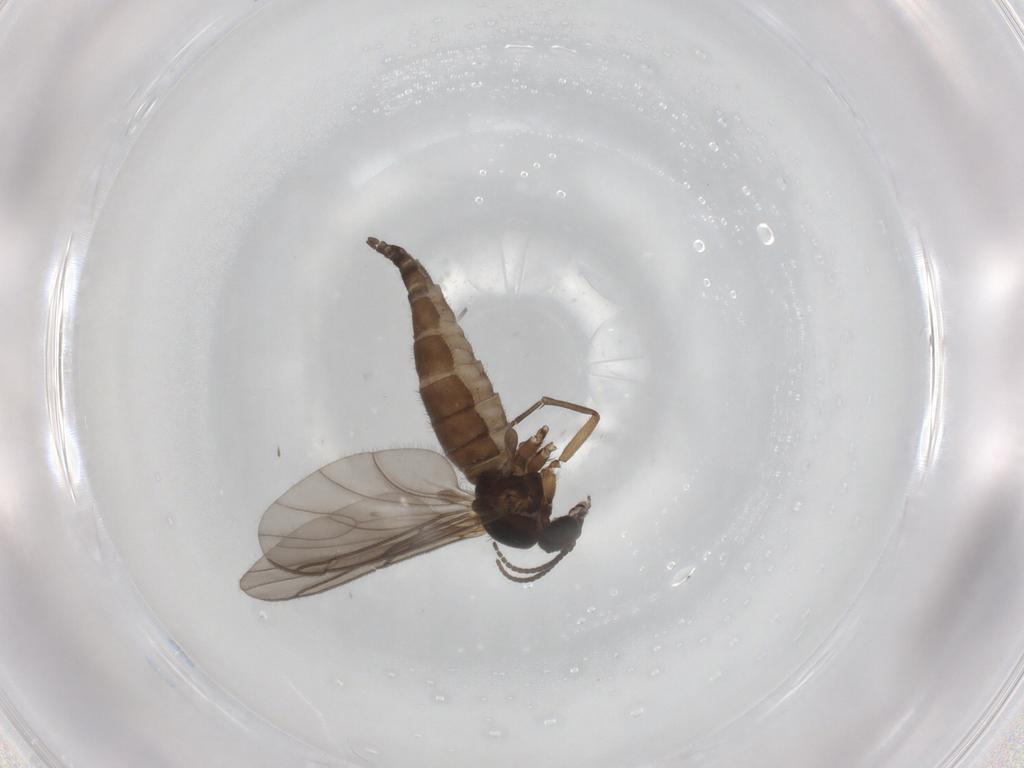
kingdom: Animalia
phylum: Arthropoda
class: Insecta
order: Diptera
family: Sciaridae
